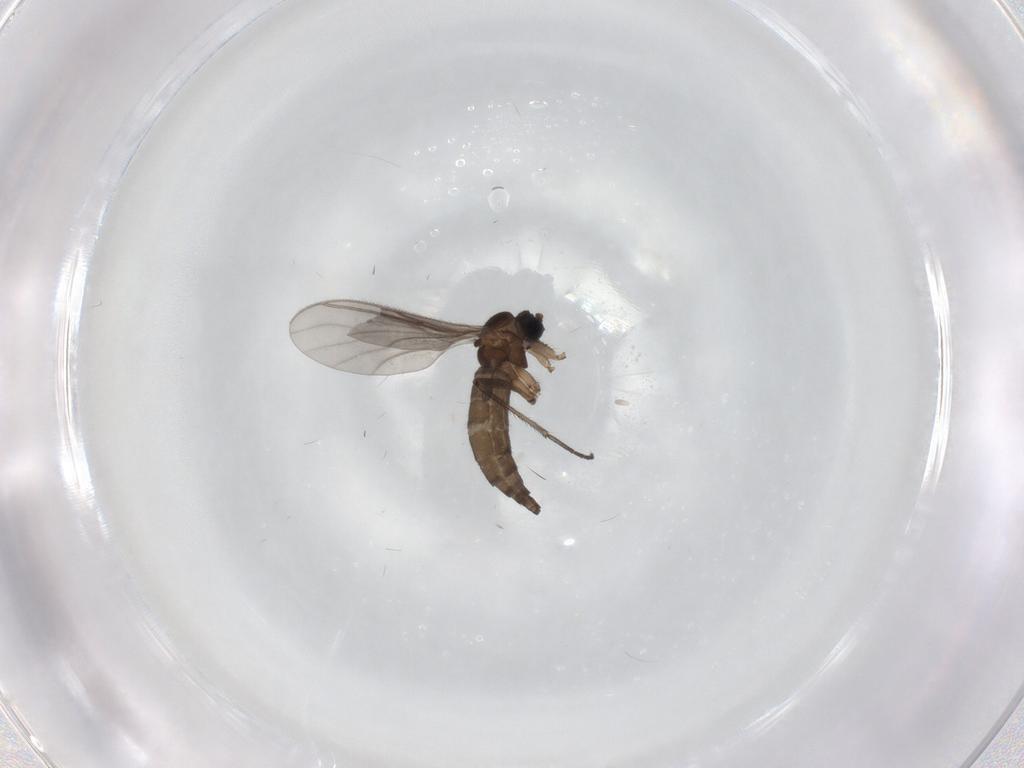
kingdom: Animalia
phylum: Arthropoda
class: Insecta
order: Diptera
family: Sciaridae
